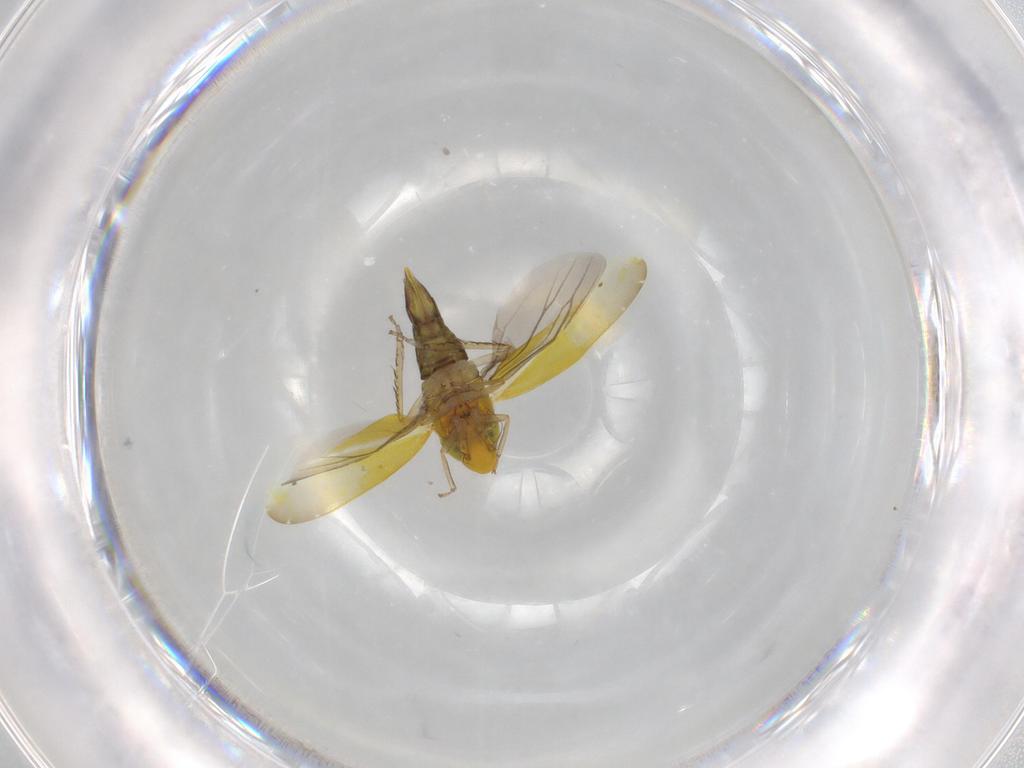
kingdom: Animalia
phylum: Arthropoda
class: Insecta
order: Hemiptera
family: Cicadellidae
